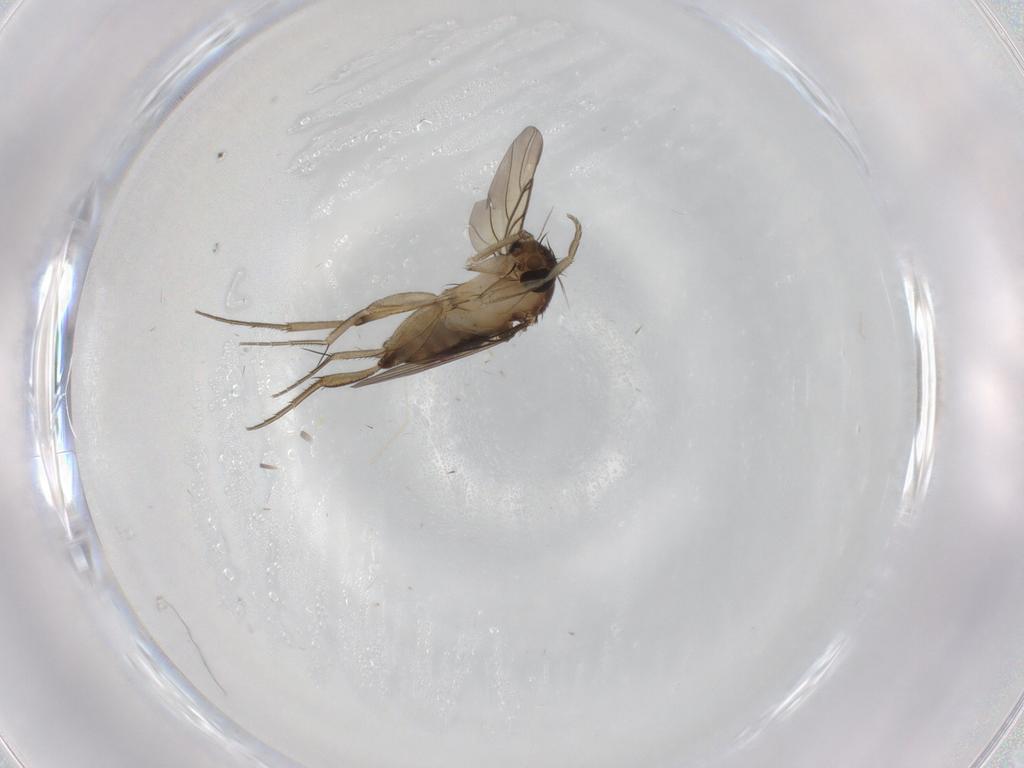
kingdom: Animalia
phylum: Arthropoda
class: Insecta
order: Diptera
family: Phoridae
